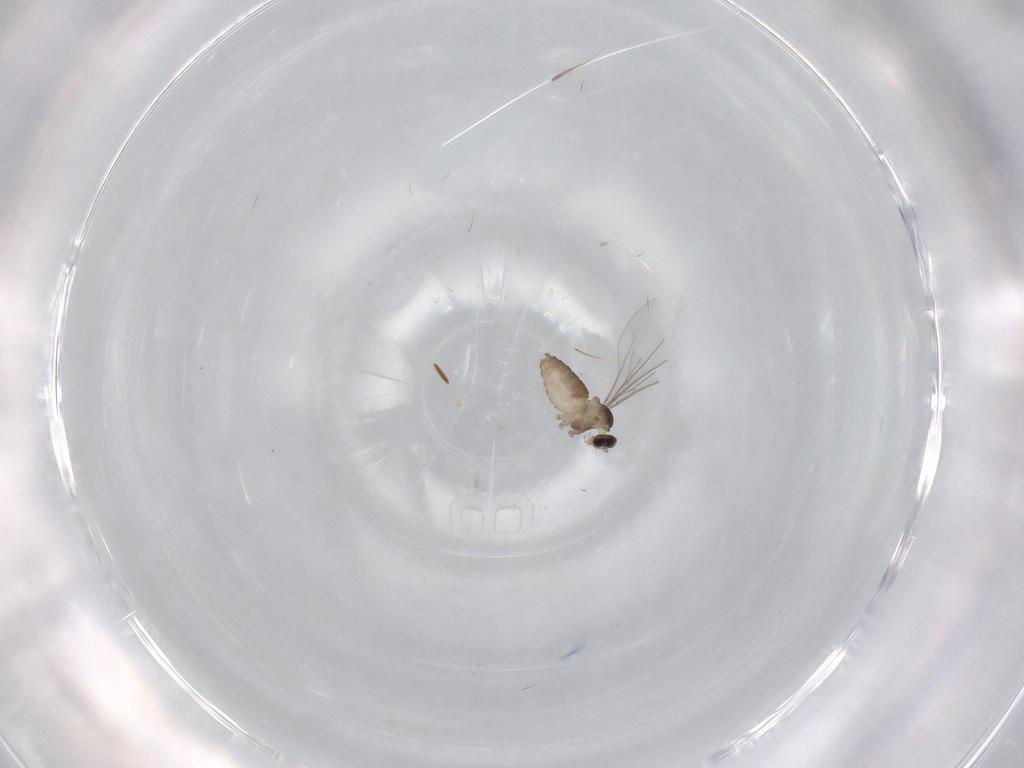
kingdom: Animalia
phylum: Arthropoda
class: Insecta
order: Diptera
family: Cecidomyiidae
